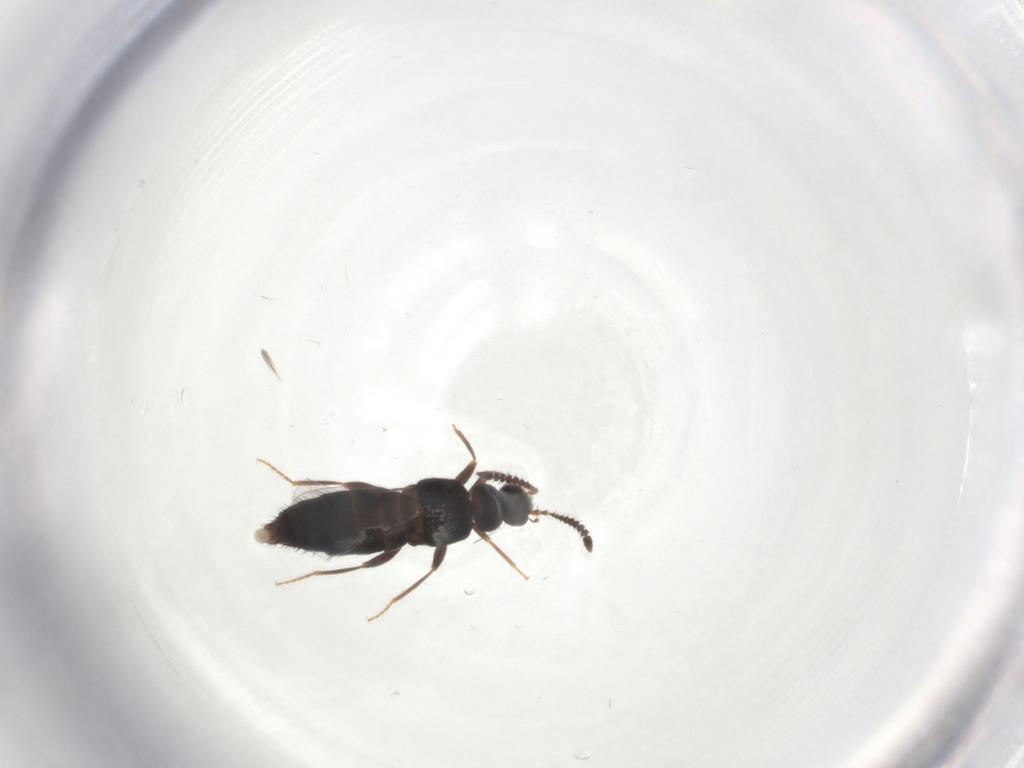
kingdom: Animalia
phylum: Arthropoda
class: Insecta
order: Coleoptera
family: Staphylinidae
